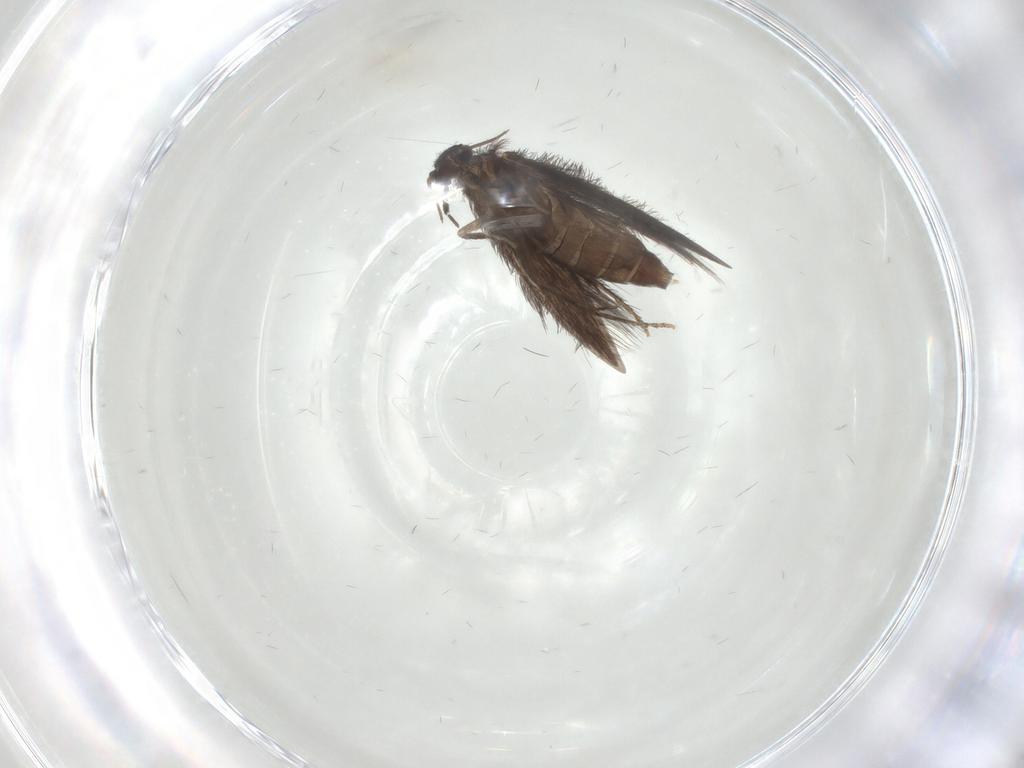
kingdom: Animalia
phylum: Arthropoda
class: Insecta
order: Trichoptera
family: Hydroptilidae
